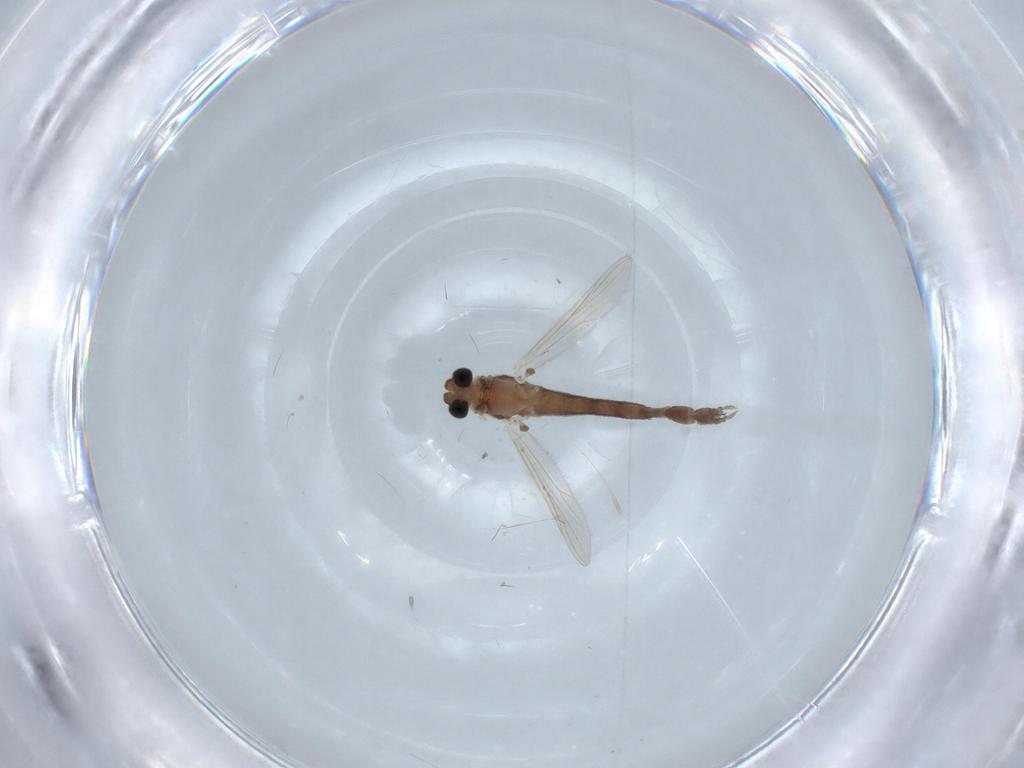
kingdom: Animalia
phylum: Arthropoda
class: Insecta
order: Diptera
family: Chironomidae
